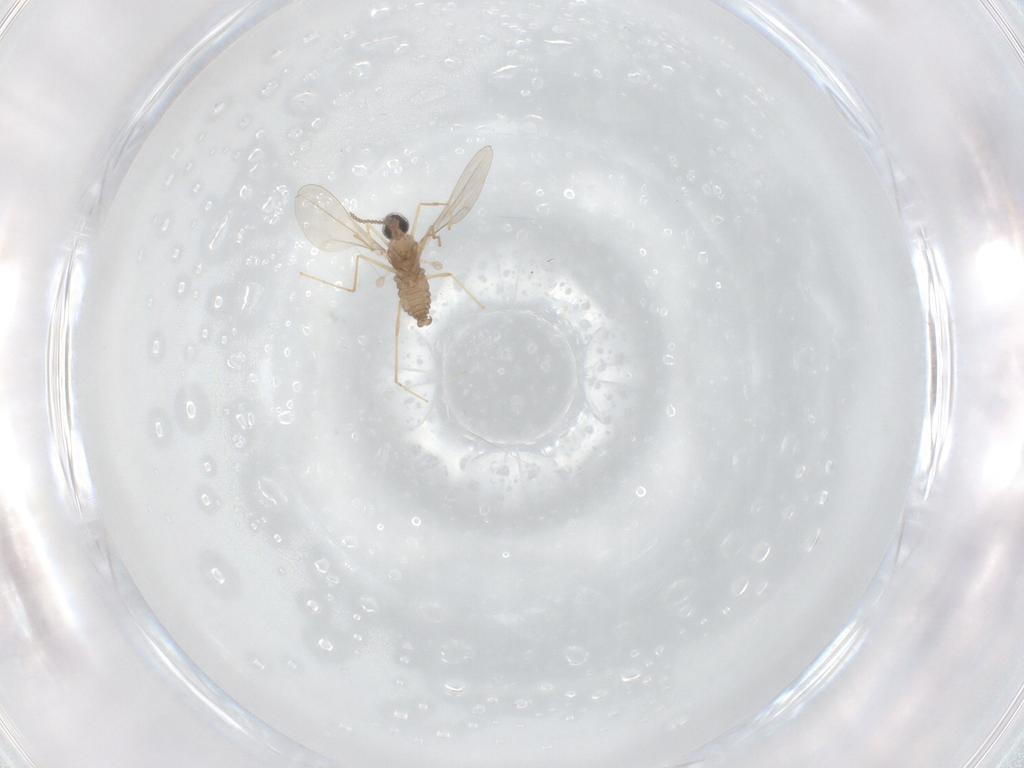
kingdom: Animalia
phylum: Arthropoda
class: Insecta
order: Diptera
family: Cecidomyiidae
